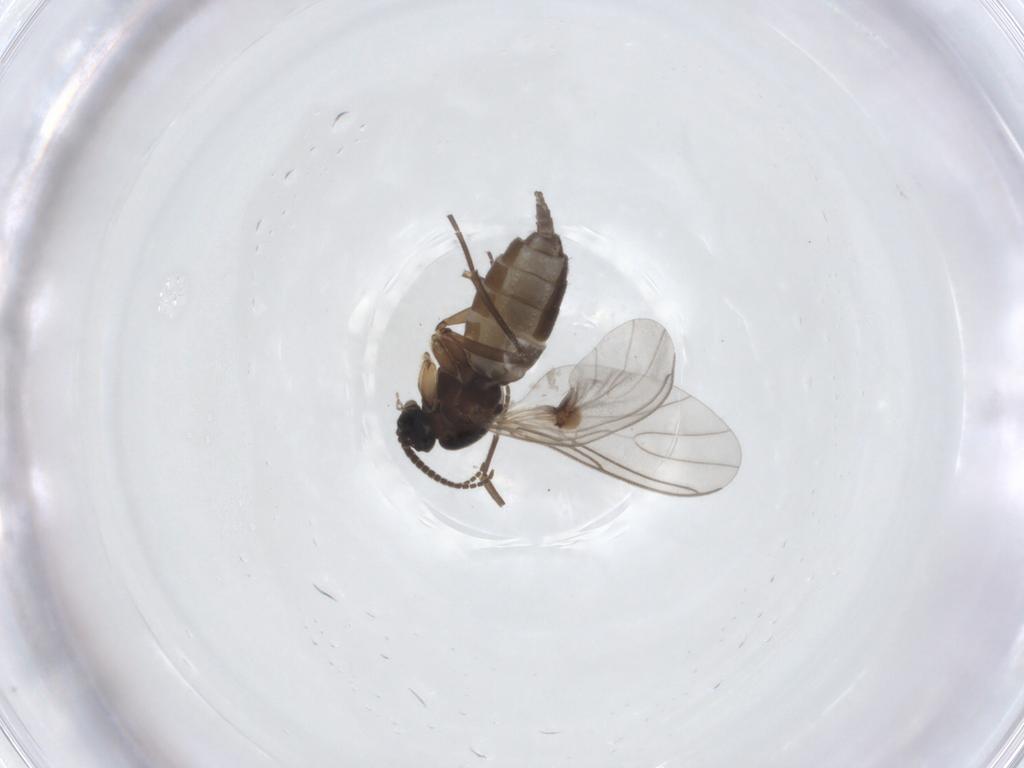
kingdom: Animalia
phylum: Arthropoda
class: Insecta
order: Diptera
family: Sciaridae
